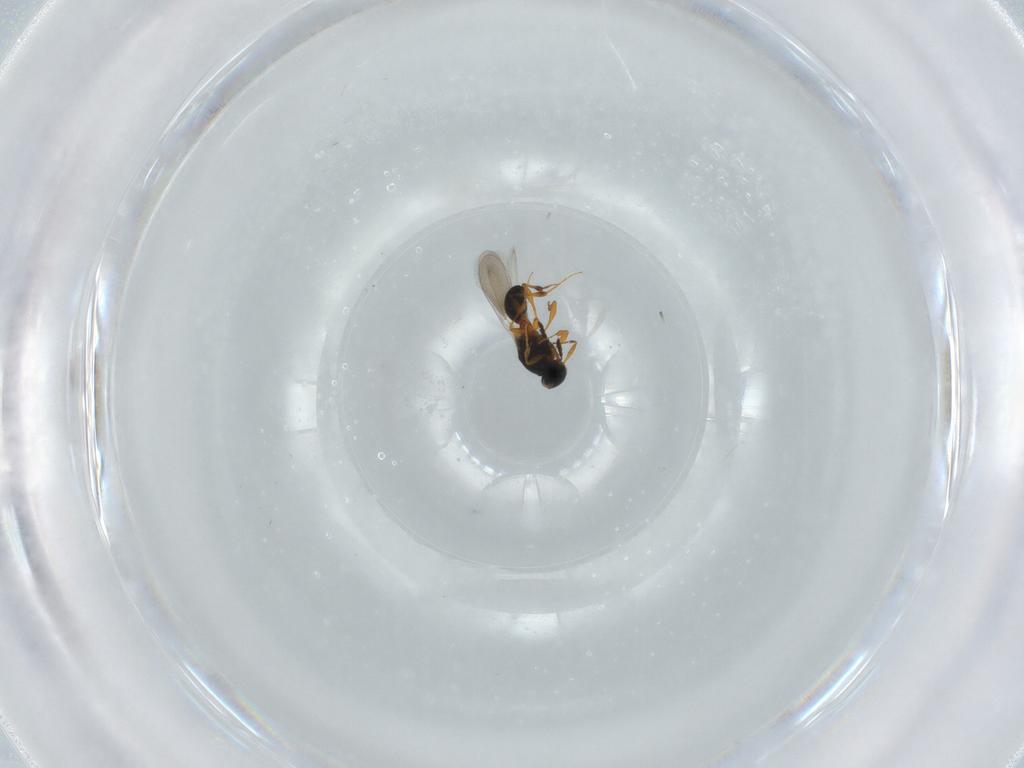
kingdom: Animalia
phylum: Arthropoda
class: Insecta
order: Hymenoptera
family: Platygastridae
